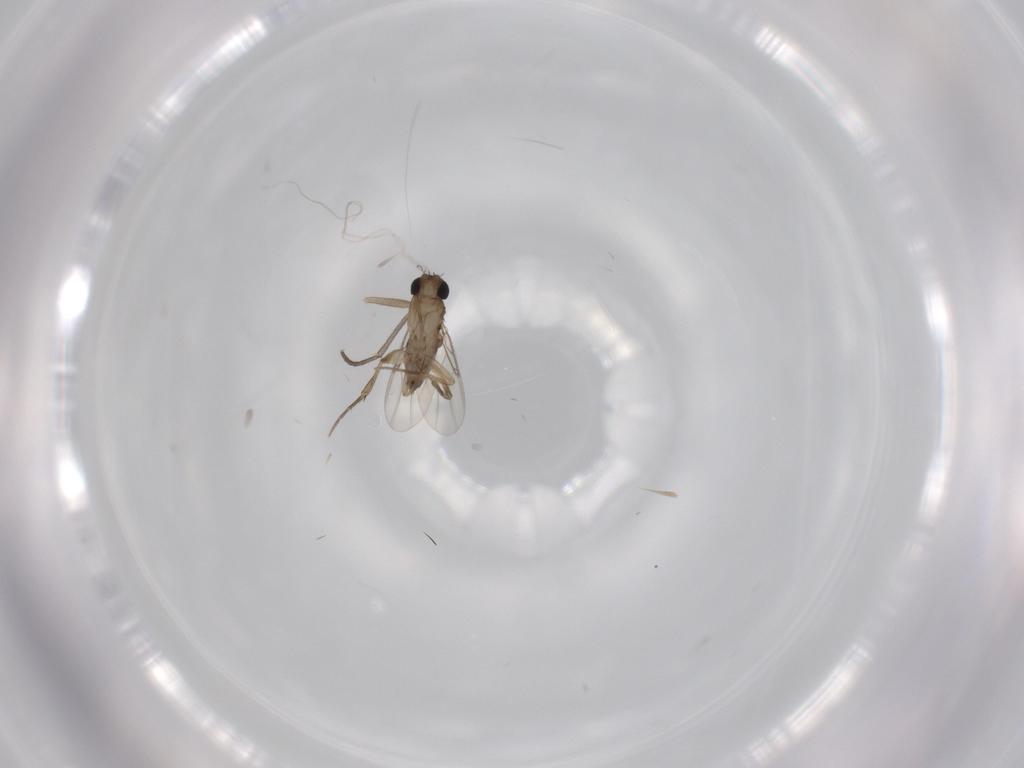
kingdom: Animalia
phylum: Arthropoda
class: Insecta
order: Diptera
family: Phoridae
